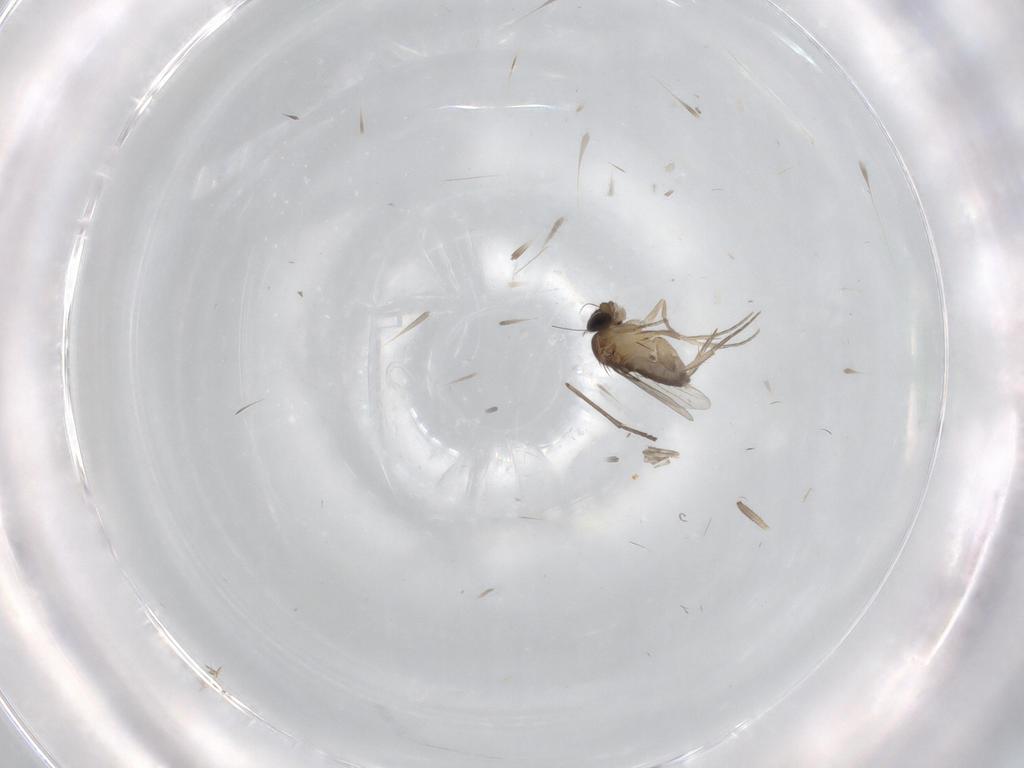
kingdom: Animalia
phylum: Arthropoda
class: Insecta
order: Diptera
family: Sciaridae
